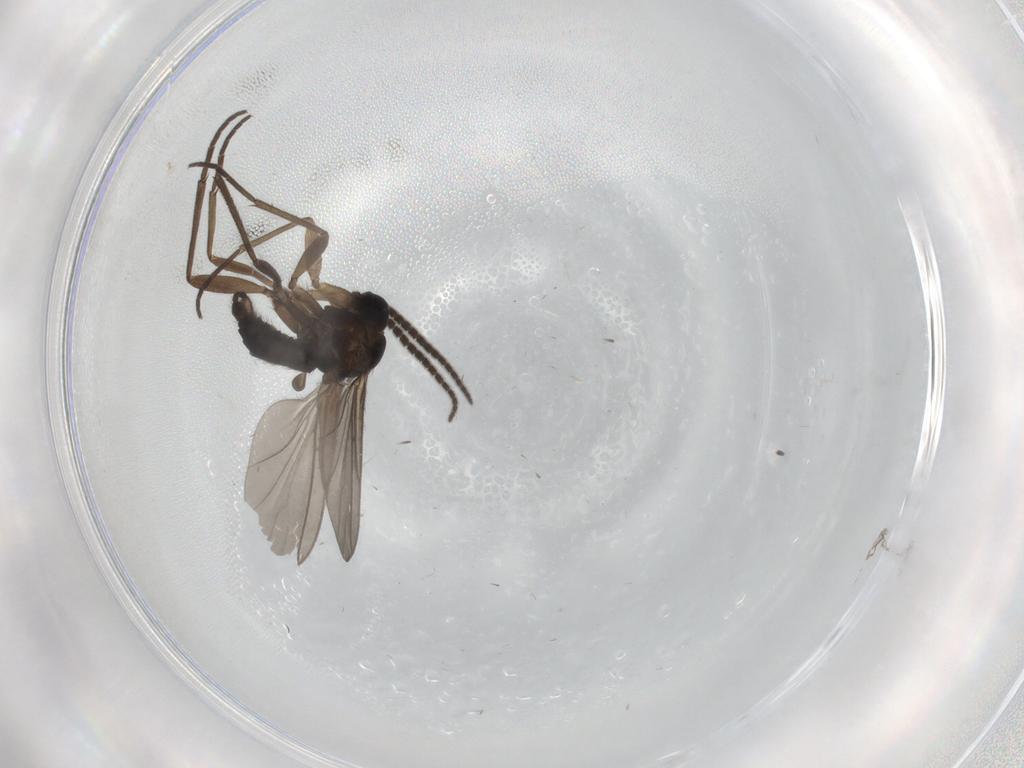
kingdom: Animalia
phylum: Arthropoda
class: Insecta
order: Diptera
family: Sciaridae
